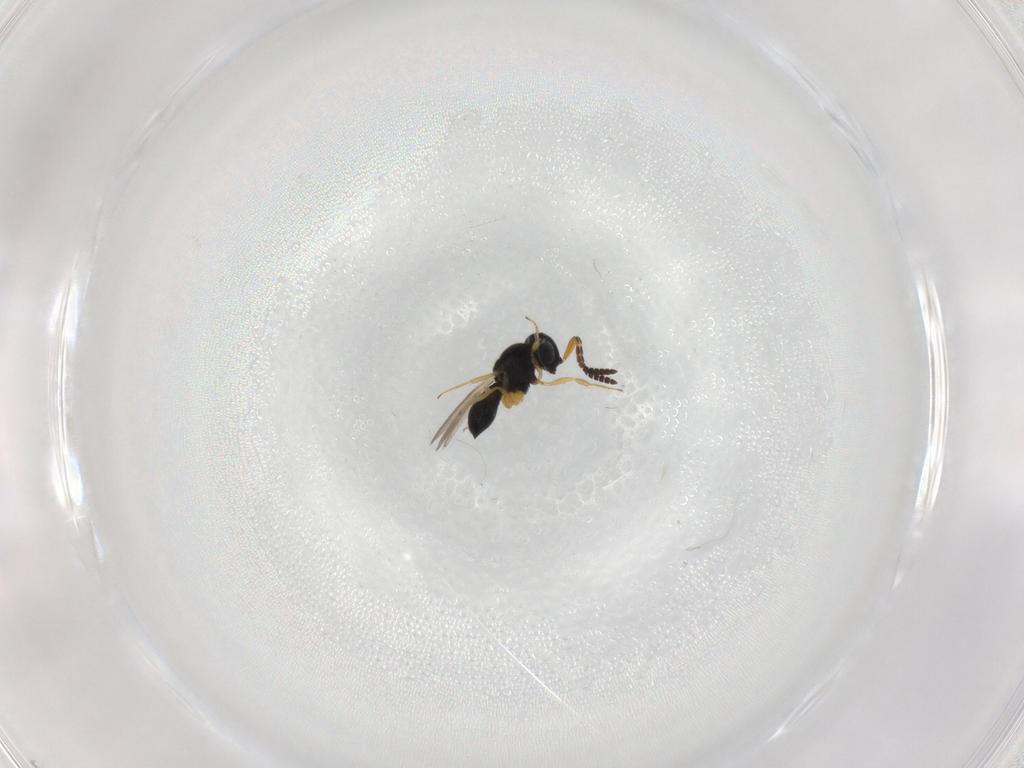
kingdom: Animalia
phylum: Arthropoda
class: Insecta
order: Hymenoptera
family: Scelionidae
